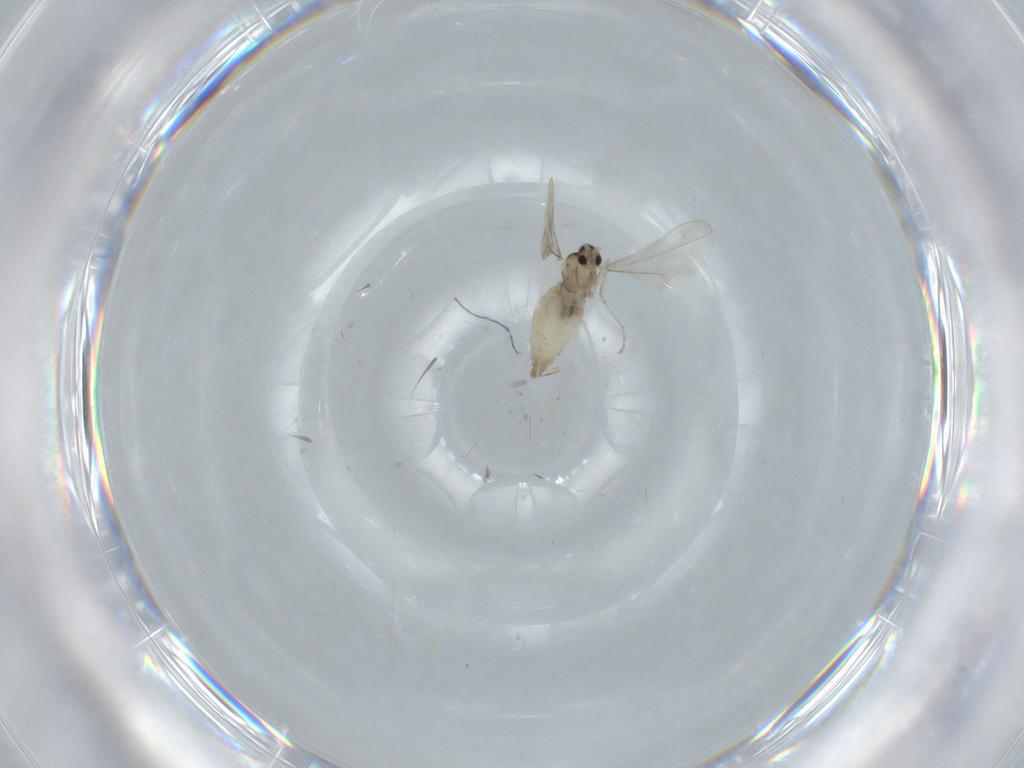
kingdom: Animalia
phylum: Arthropoda
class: Insecta
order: Diptera
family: Cecidomyiidae
